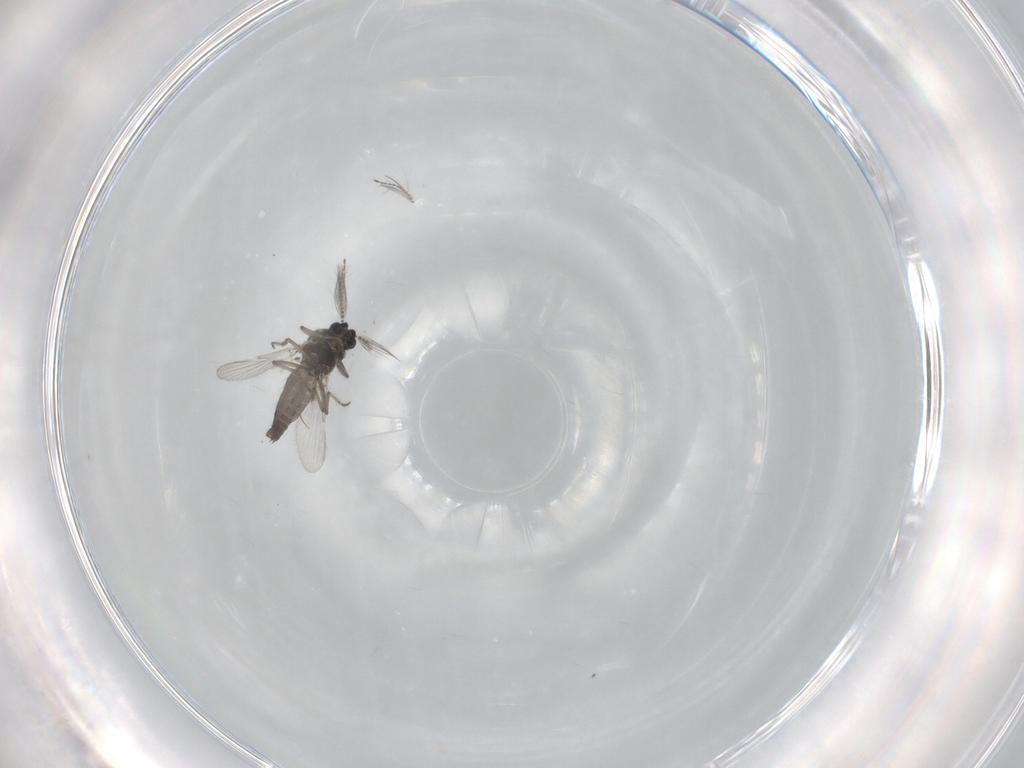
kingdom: Animalia
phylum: Arthropoda
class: Insecta
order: Diptera
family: Ceratopogonidae
